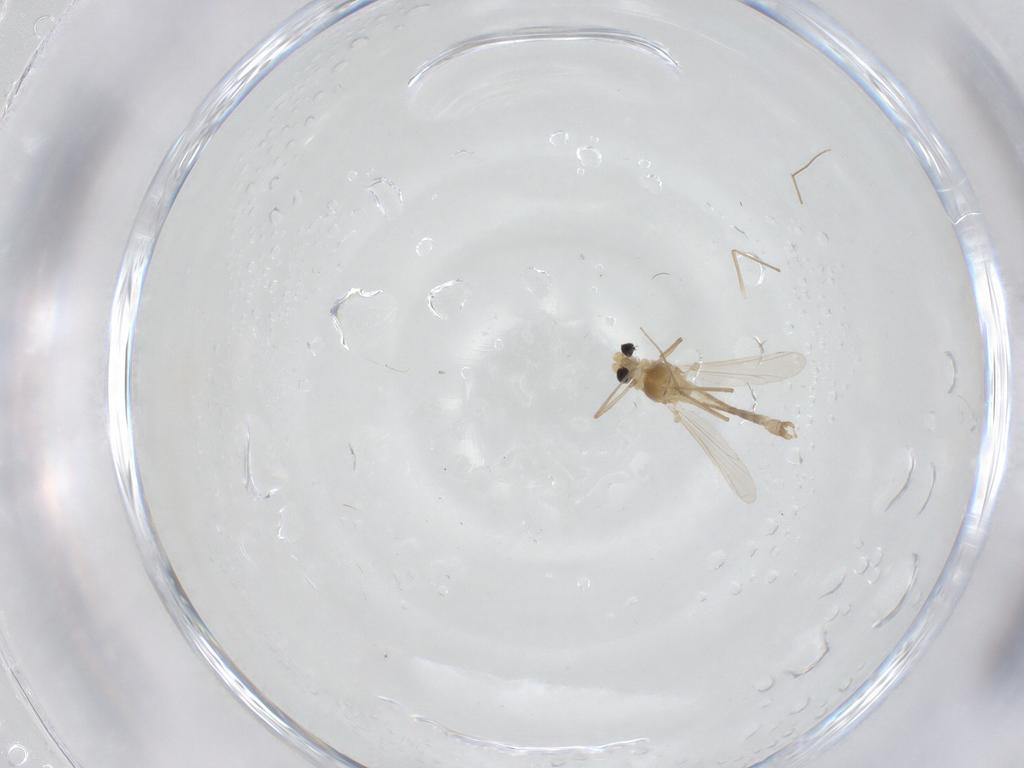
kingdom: Animalia
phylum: Arthropoda
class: Insecta
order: Diptera
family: Chironomidae
